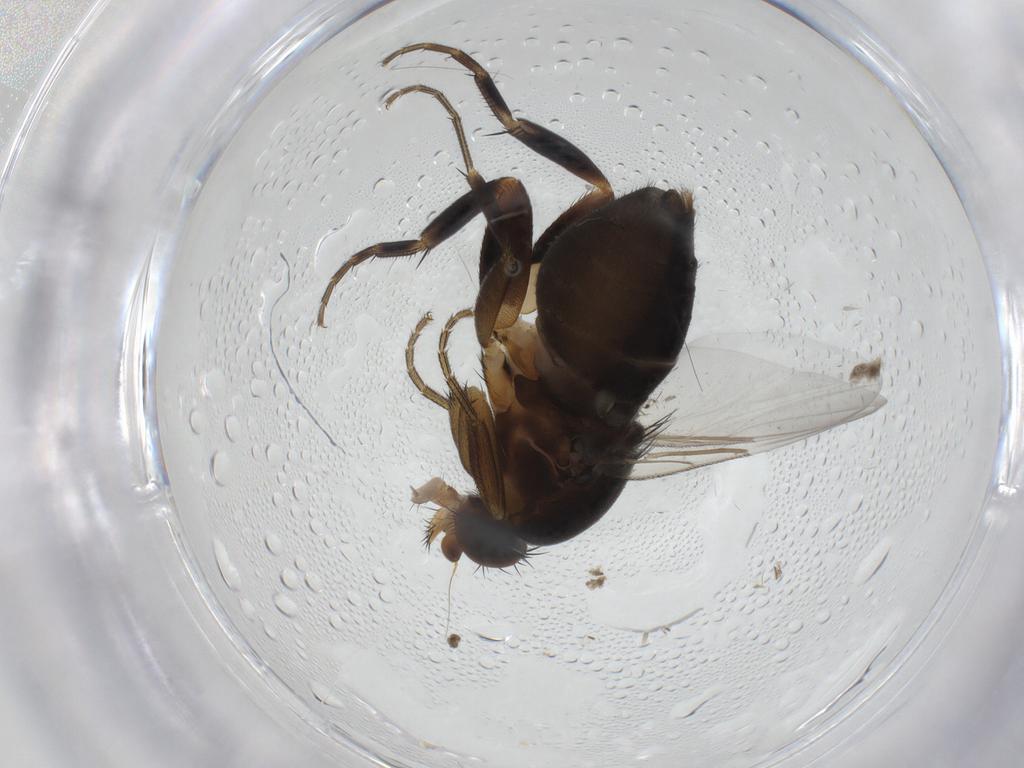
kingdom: Animalia
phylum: Arthropoda
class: Insecta
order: Diptera
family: Phoridae
